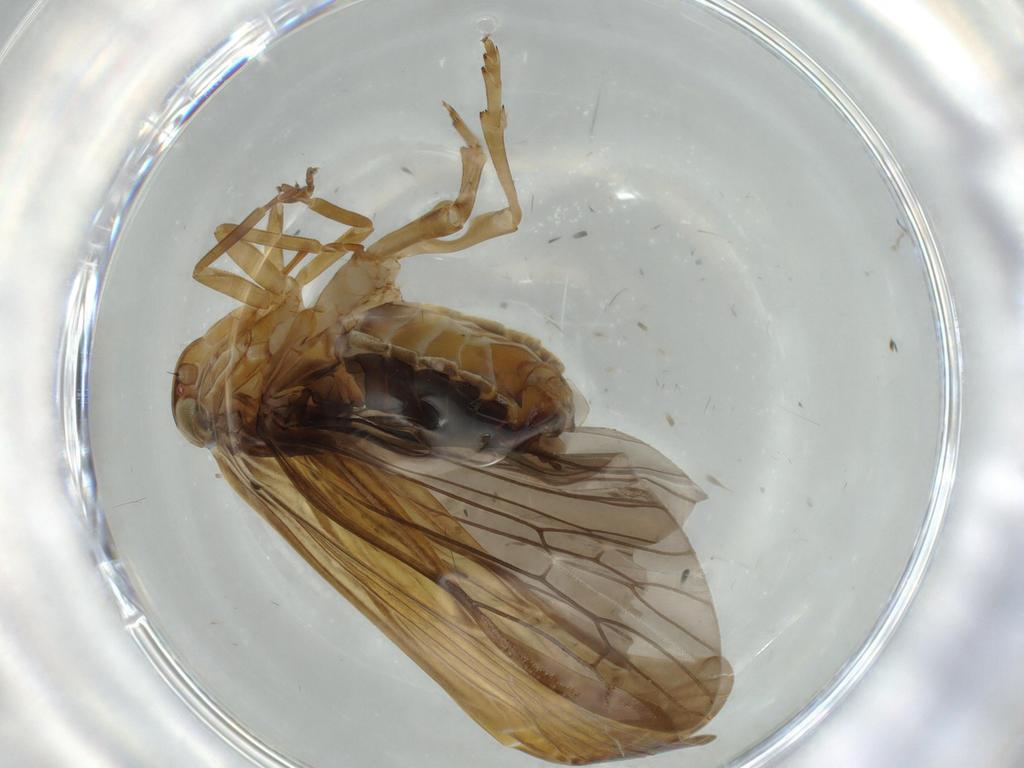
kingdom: Animalia
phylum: Arthropoda
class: Insecta
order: Hemiptera
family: Achilidae
